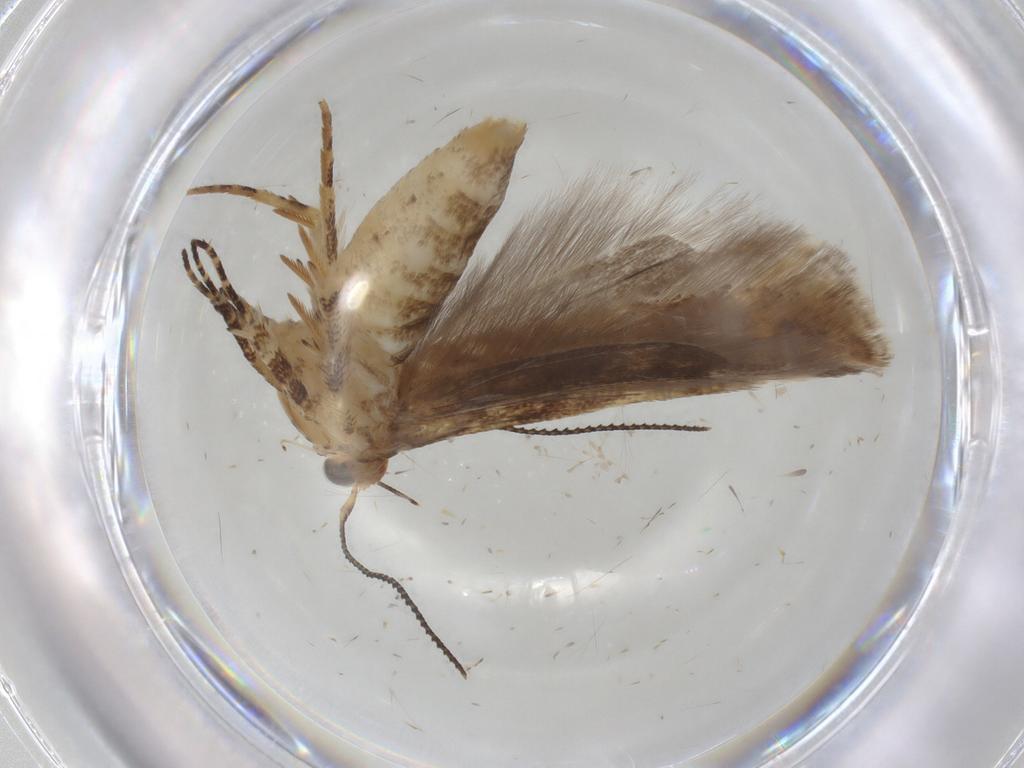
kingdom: Animalia
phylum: Arthropoda
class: Insecta
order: Lepidoptera
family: Gelechiidae
